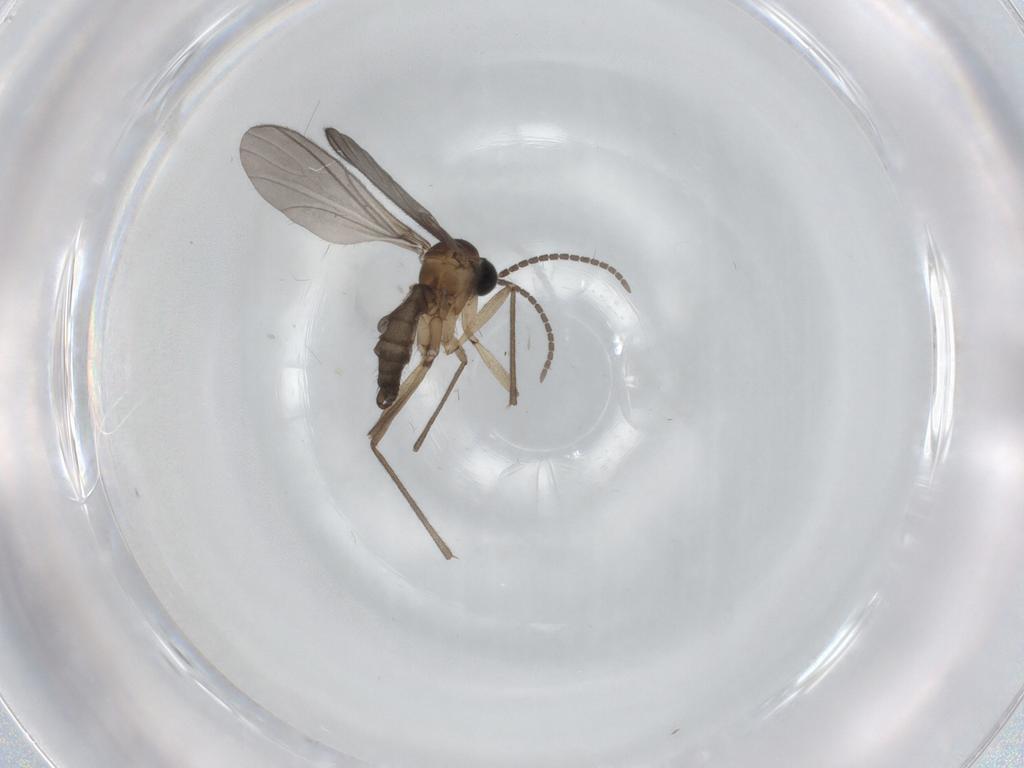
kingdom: Animalia
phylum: Arthropoda
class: Insecta
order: Diptera
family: Sciaridae
